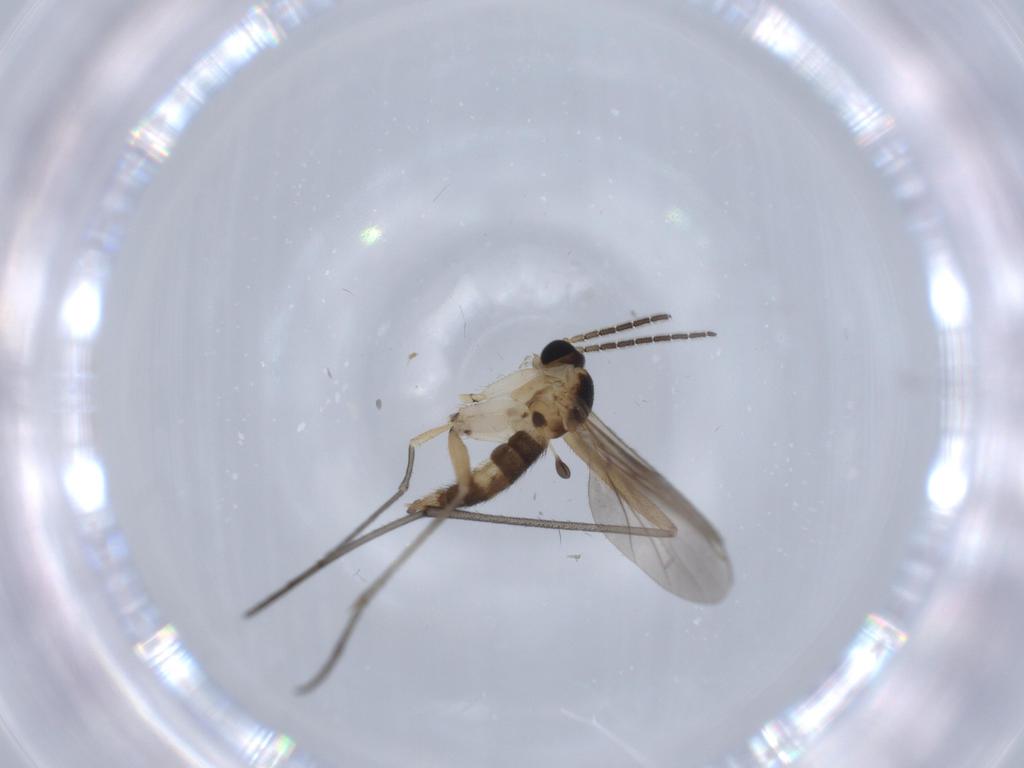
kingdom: Animalia
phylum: Arthropoda
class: Insecta
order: Diptera
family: Sciaridae
